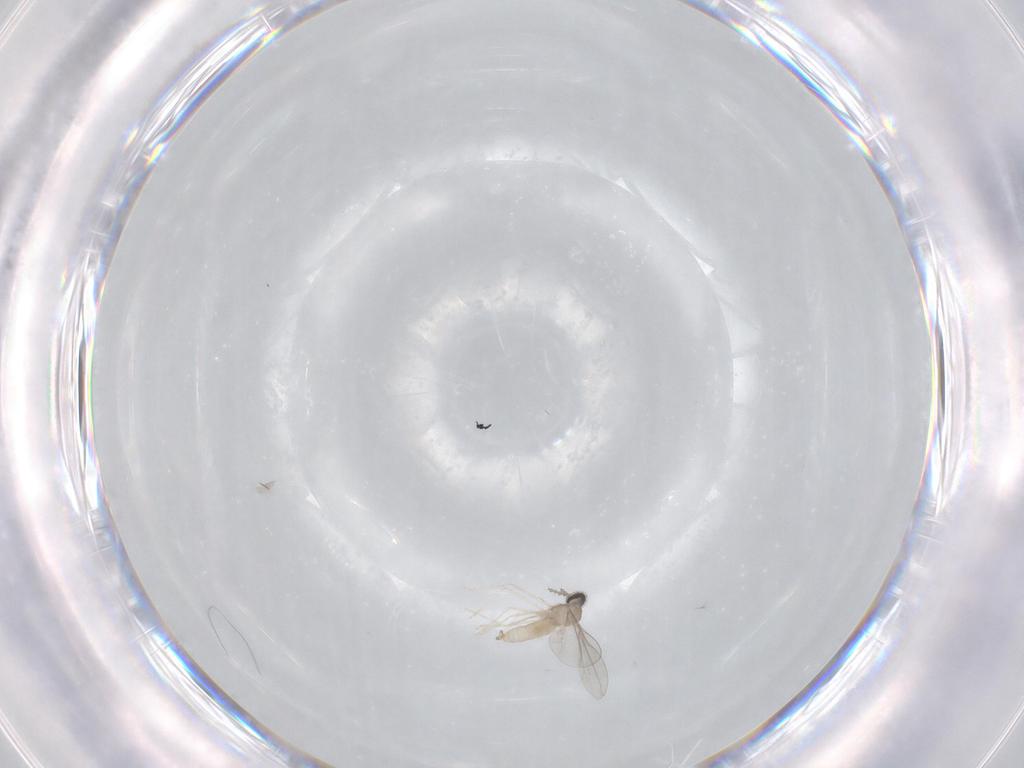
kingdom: Animalia
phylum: Arthropoda
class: Insecta
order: Diptera
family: Cecidomyiidae
